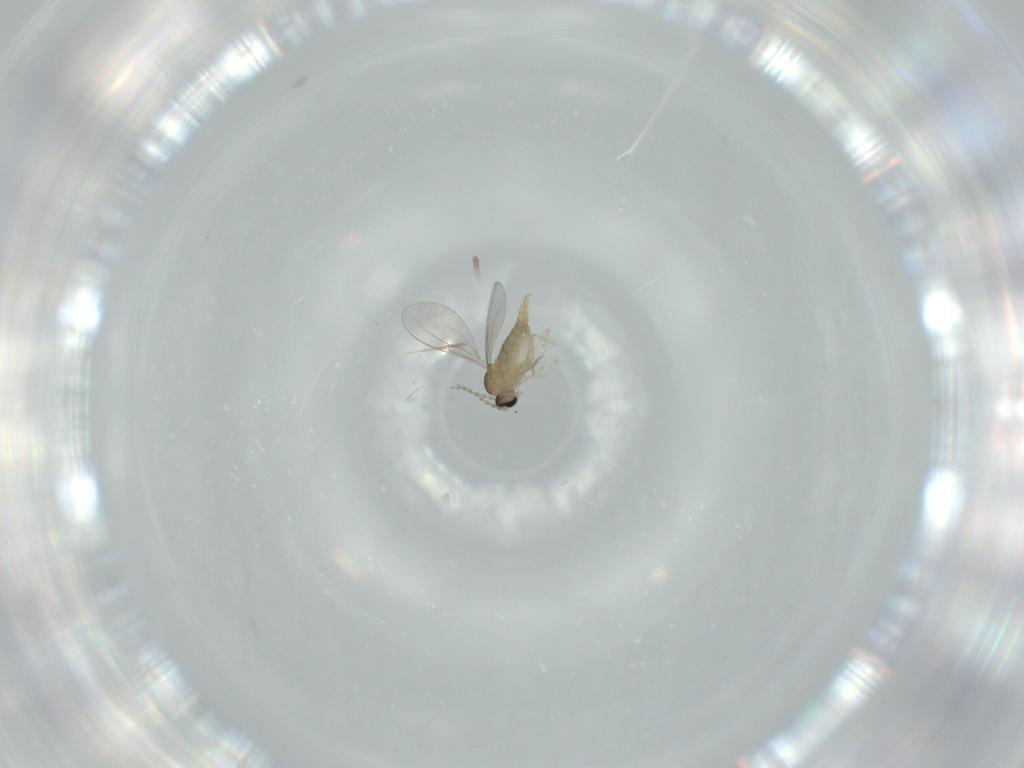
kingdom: Animalia
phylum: Arthropoda
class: Insecta
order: Diptera
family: Cecidomyiidae
